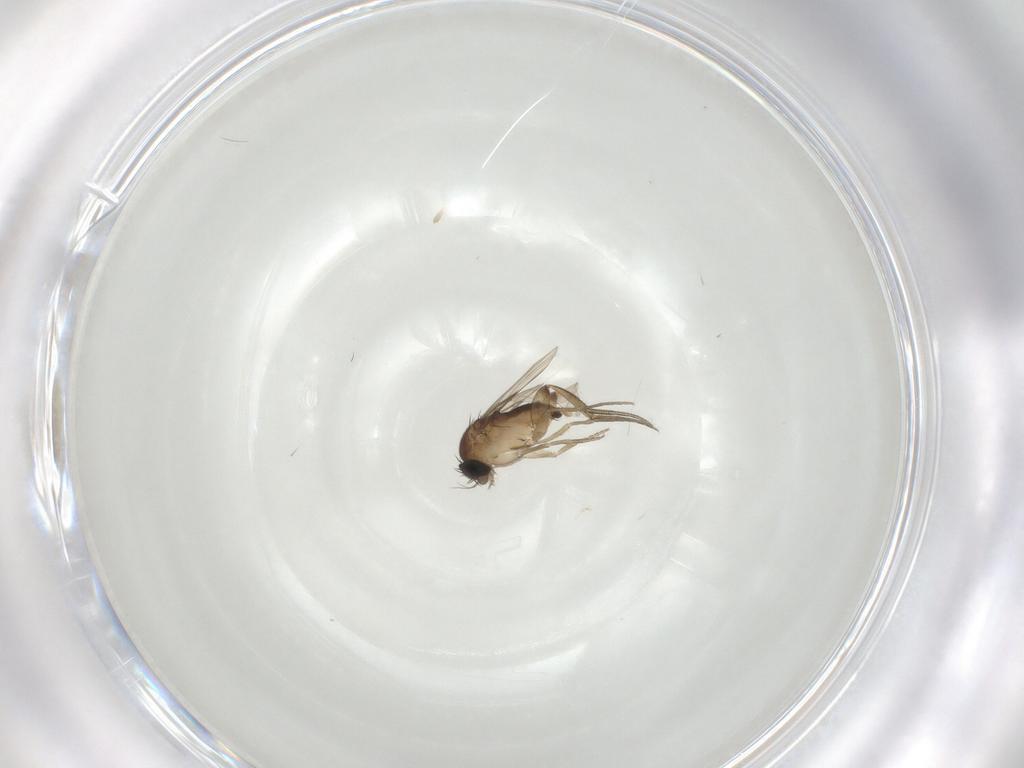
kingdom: Animalia
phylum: Arthropoda
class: Insecta
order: Diptera
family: Phoridae
